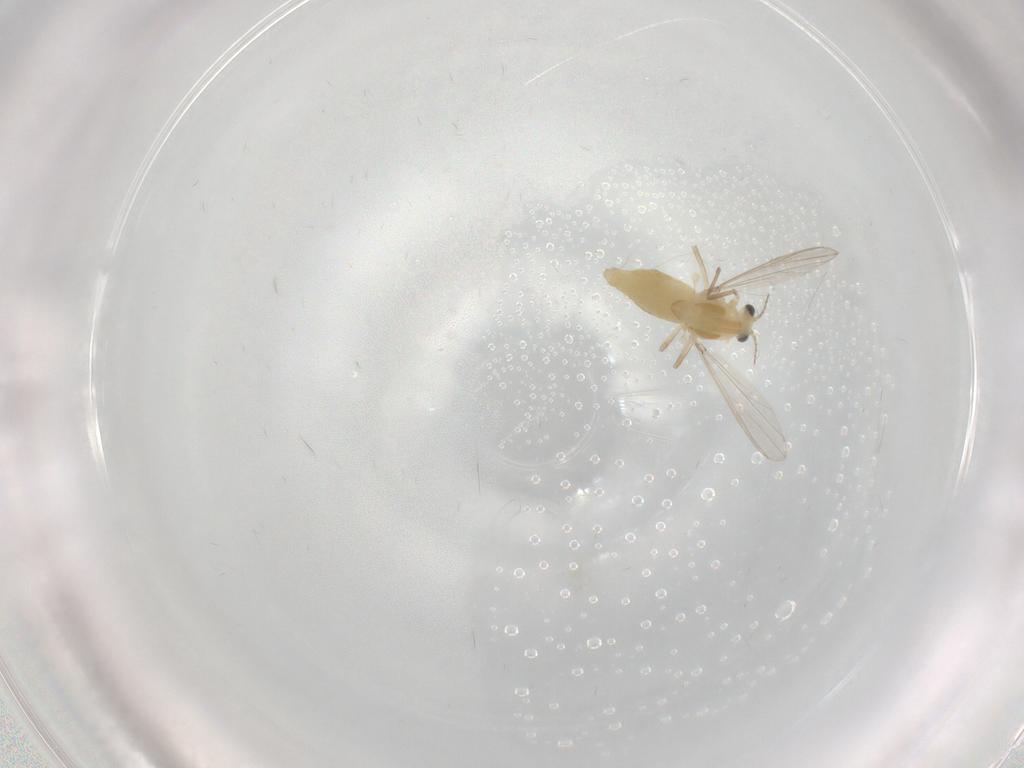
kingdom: Animalia
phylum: Arthropoda
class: Insecta
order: Diptera
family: Chironomidae
